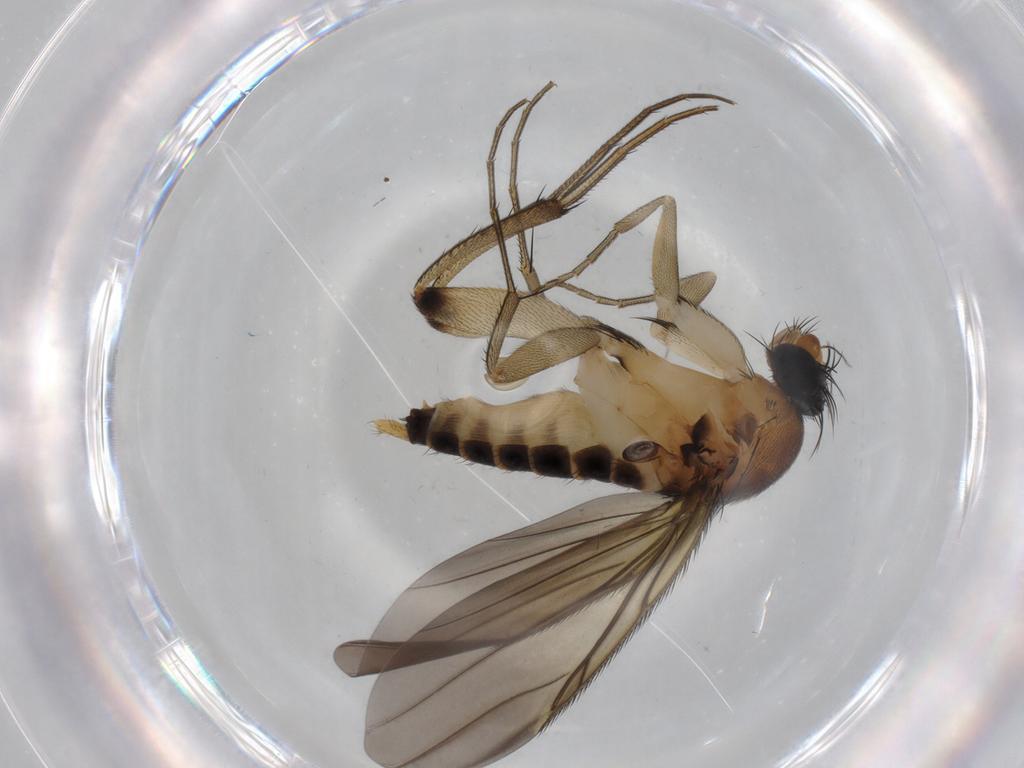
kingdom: Animalia
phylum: Arthropoda
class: Insecta
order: Diptera
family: Phoridae
